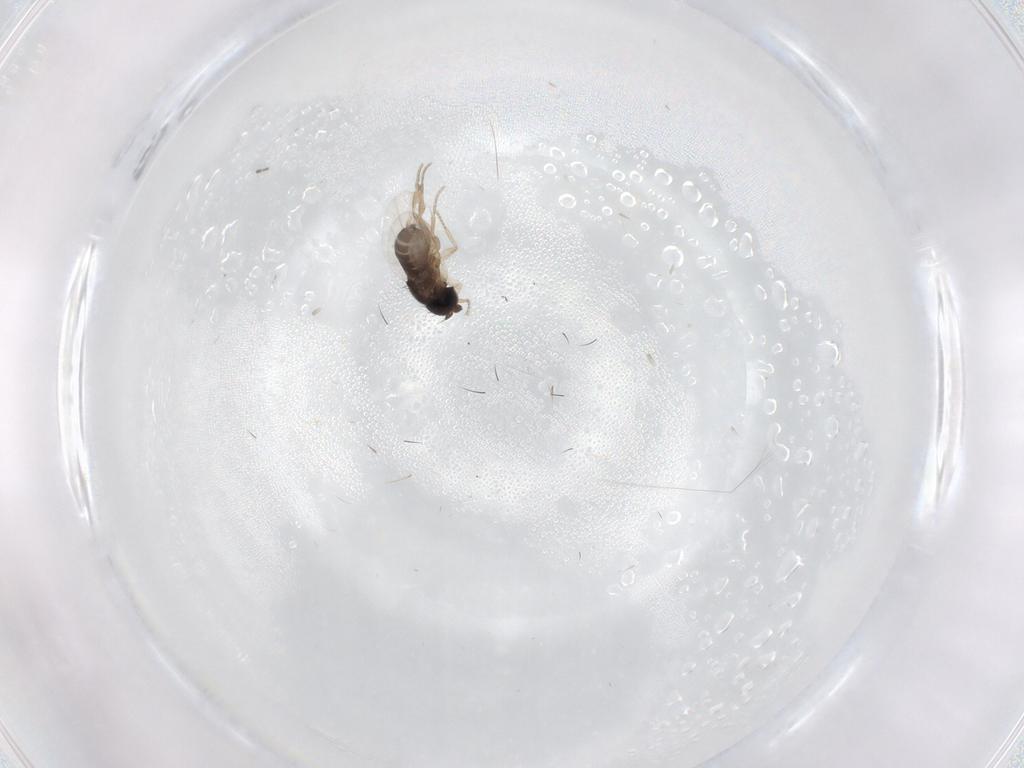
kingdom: Animalia
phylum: Arthropoda
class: Insecta
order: Diptera
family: Phoridae
